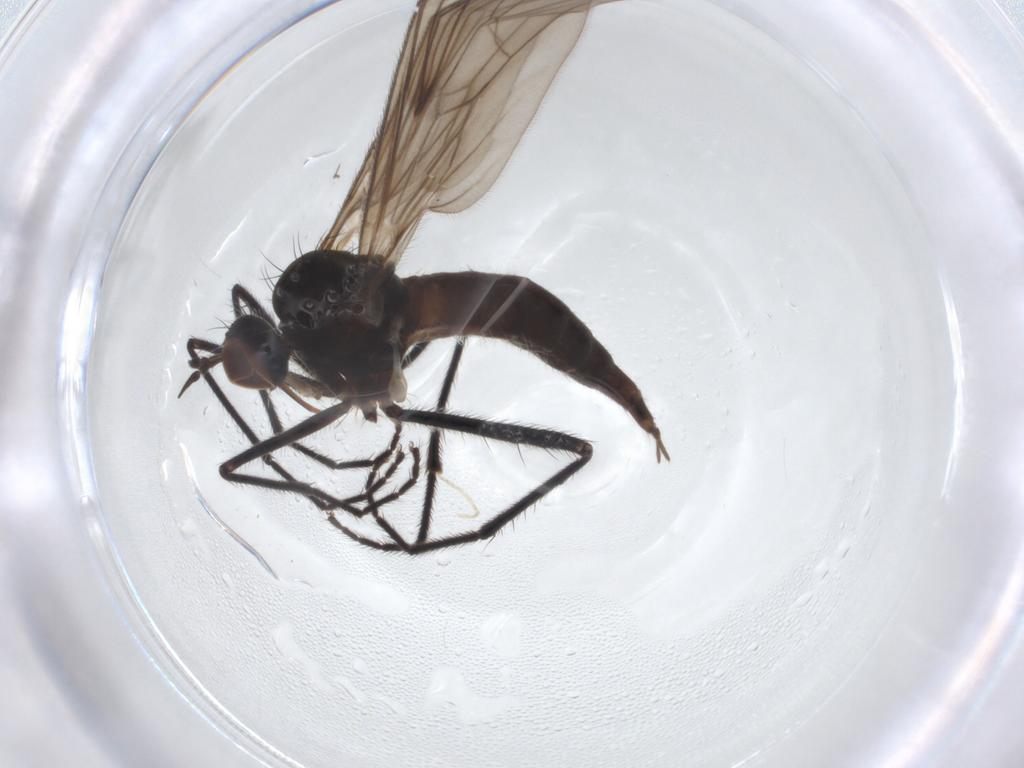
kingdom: Animalia
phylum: Arthropoda
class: Insecta
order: Diptera
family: Empididae
